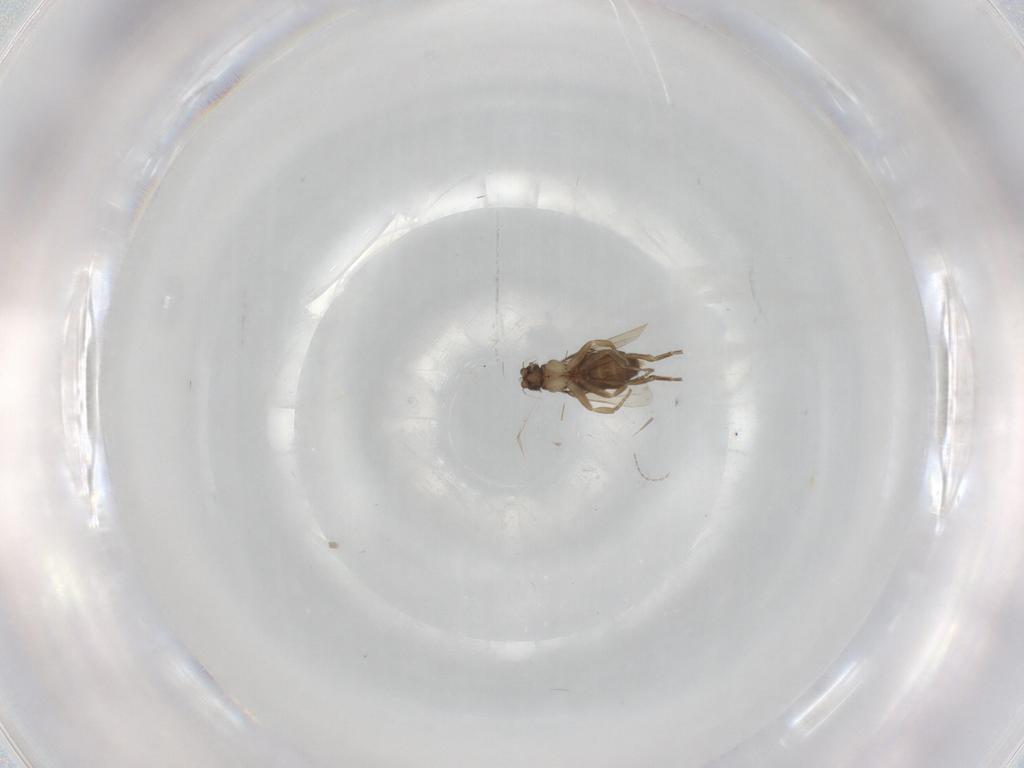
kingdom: Animalia
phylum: Arthropoda
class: Insecta
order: Diptera
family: Phoridae
